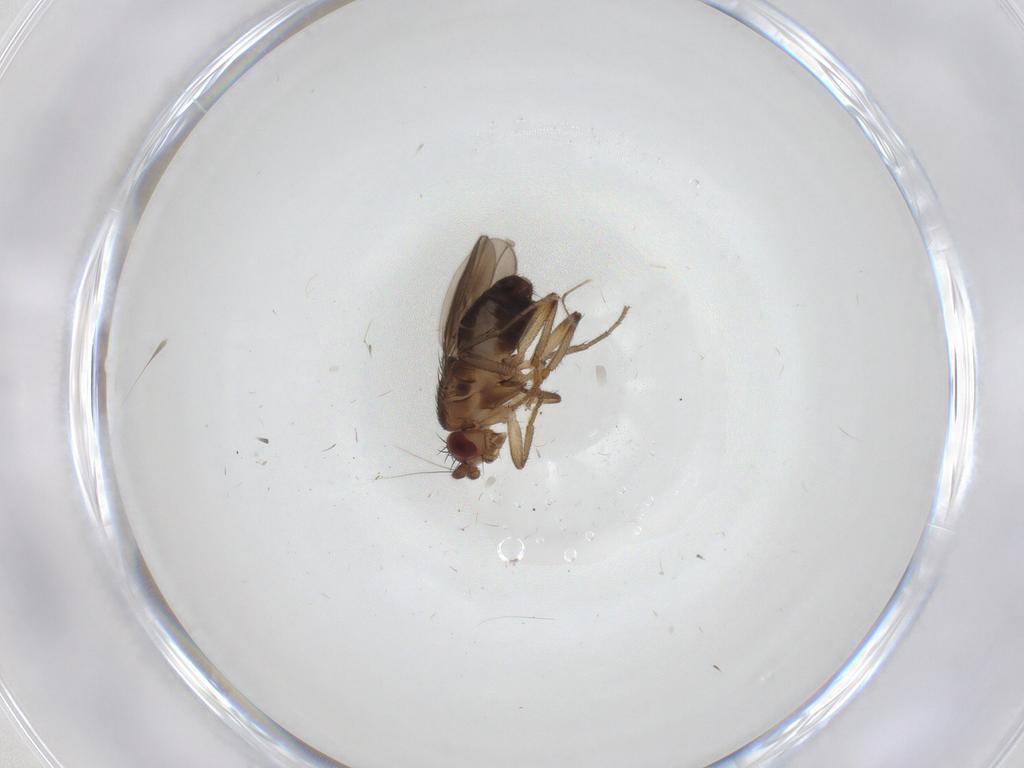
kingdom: Animalia
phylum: Arthropoda
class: Insecta
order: Diptera
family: Sphaeroceridae
